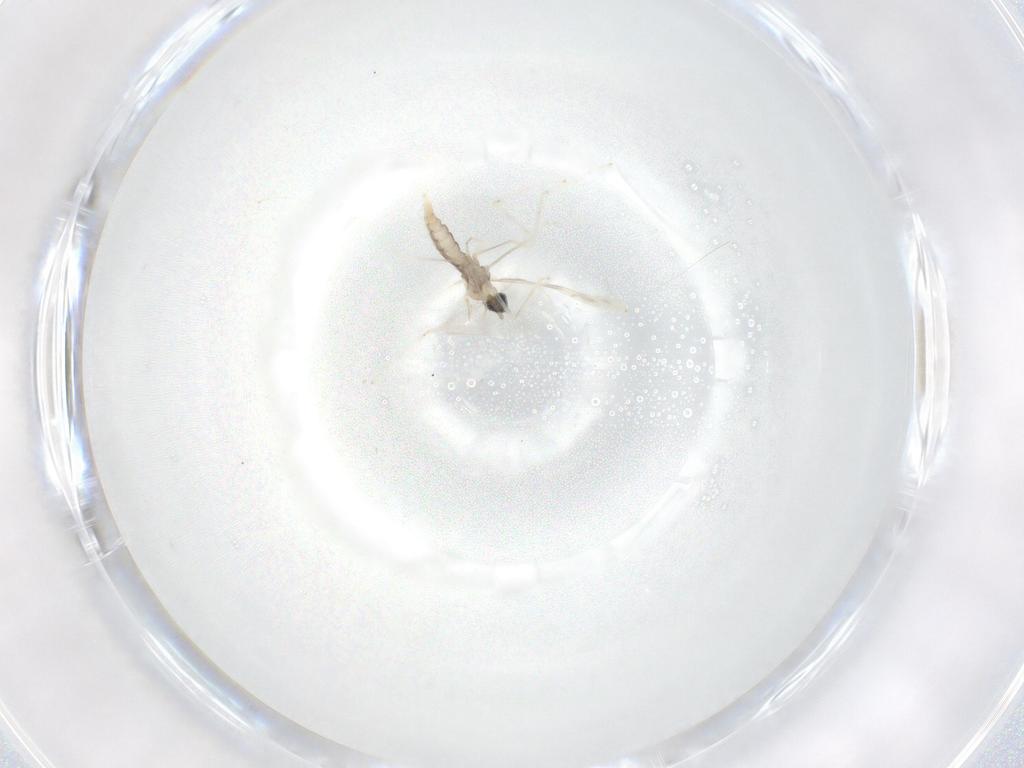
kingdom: Animalia
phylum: Arthropoda
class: Insecta
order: Diptera
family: Cecidomyiidae
